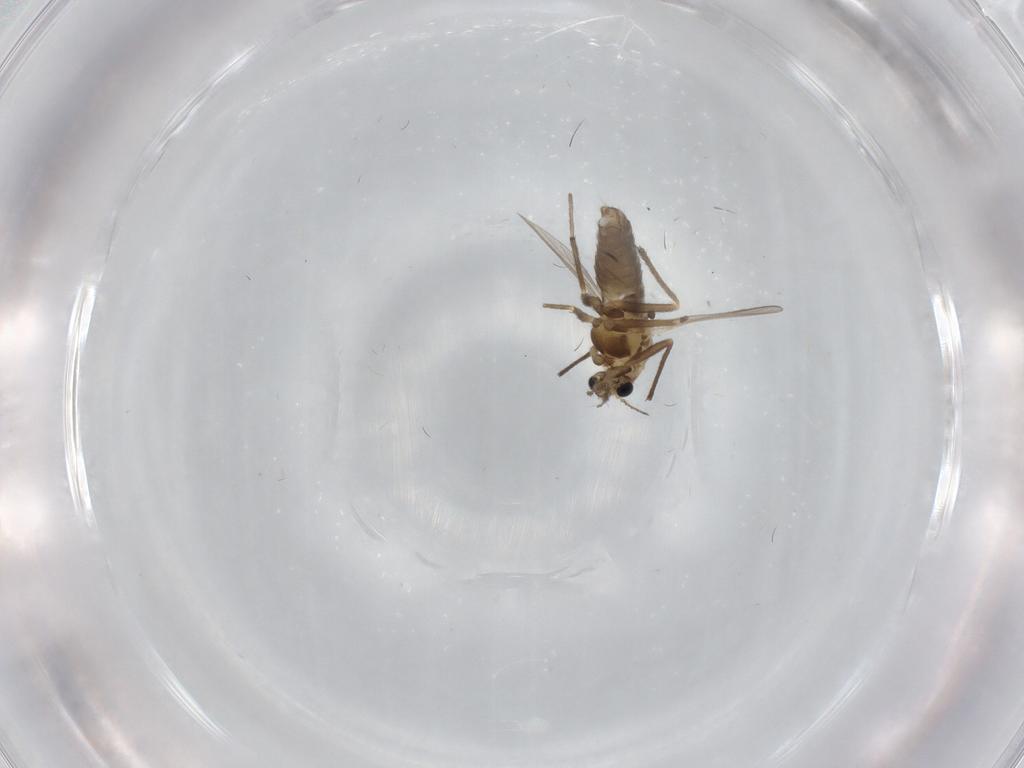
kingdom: Animalia
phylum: Arthropoda
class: Insecta
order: Diptera
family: Chironomidae
